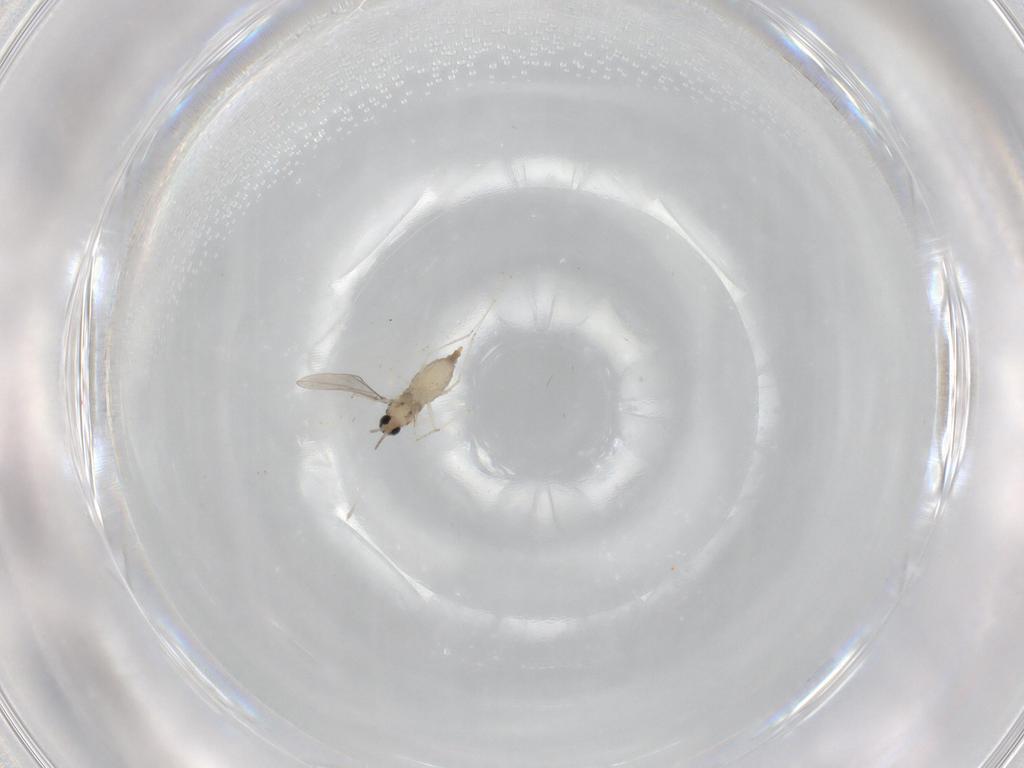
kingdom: Animalia
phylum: Arthropoda
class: Insecta
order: Diptera
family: Cecidomyiidae
